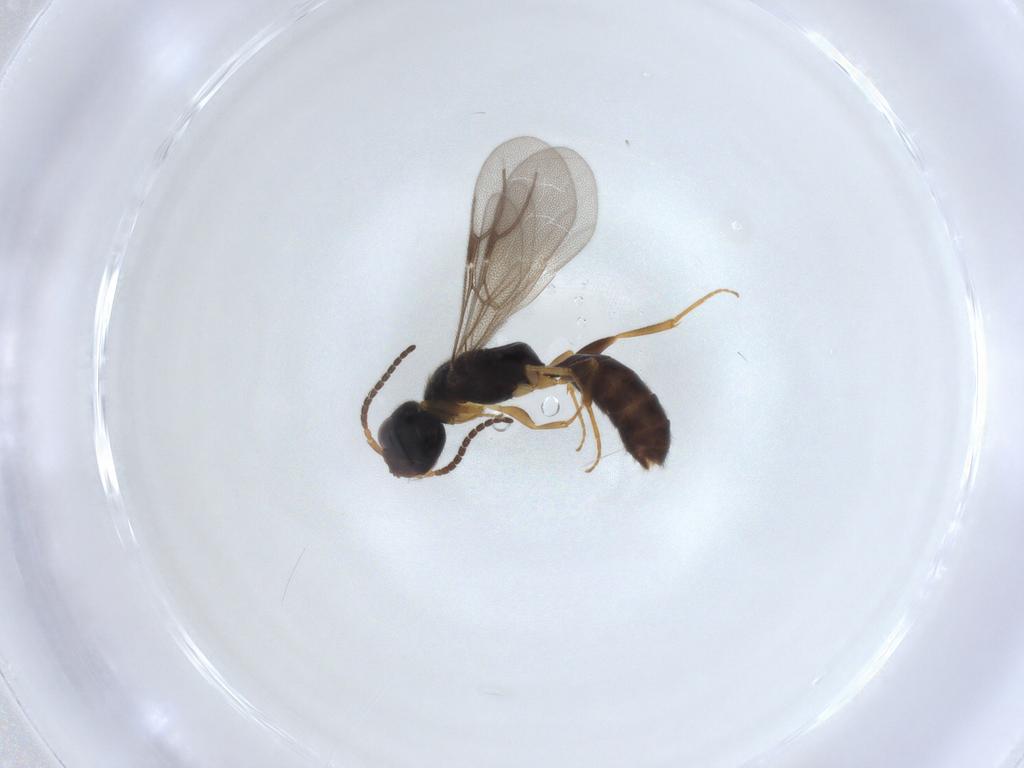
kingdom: Animalia
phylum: Arthropoda
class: Insecta
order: Hymenoptera
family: Bethylidae
